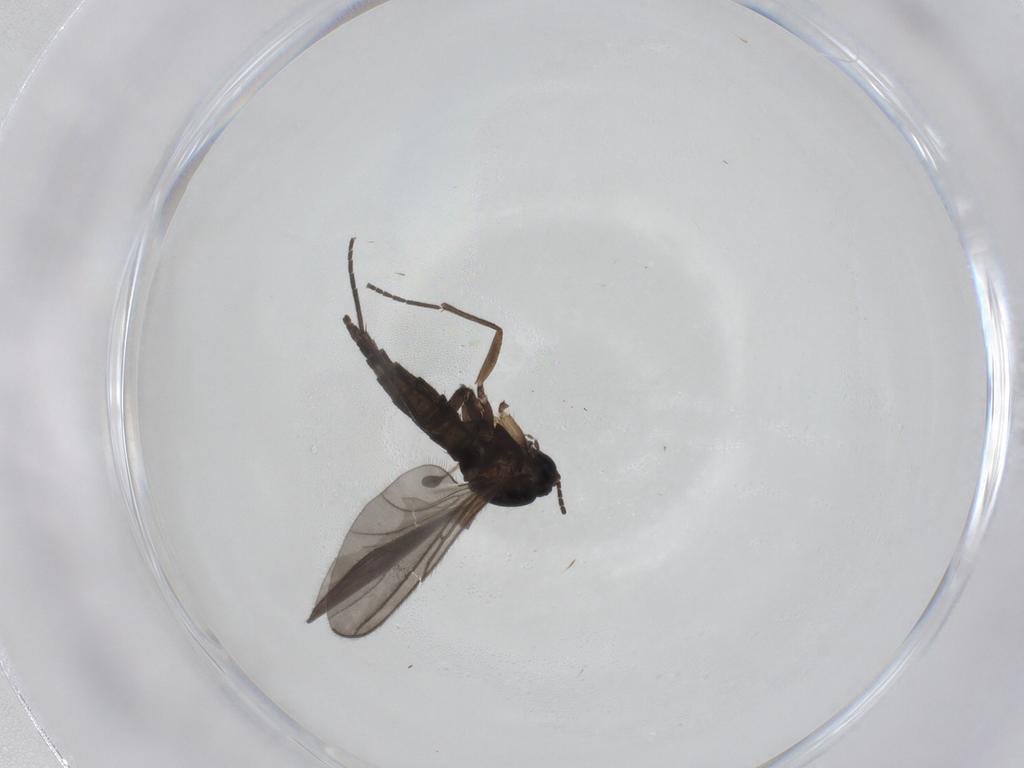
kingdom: Animalia
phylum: Arthropoda
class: Insecta
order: Diptera
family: Sciaridae
